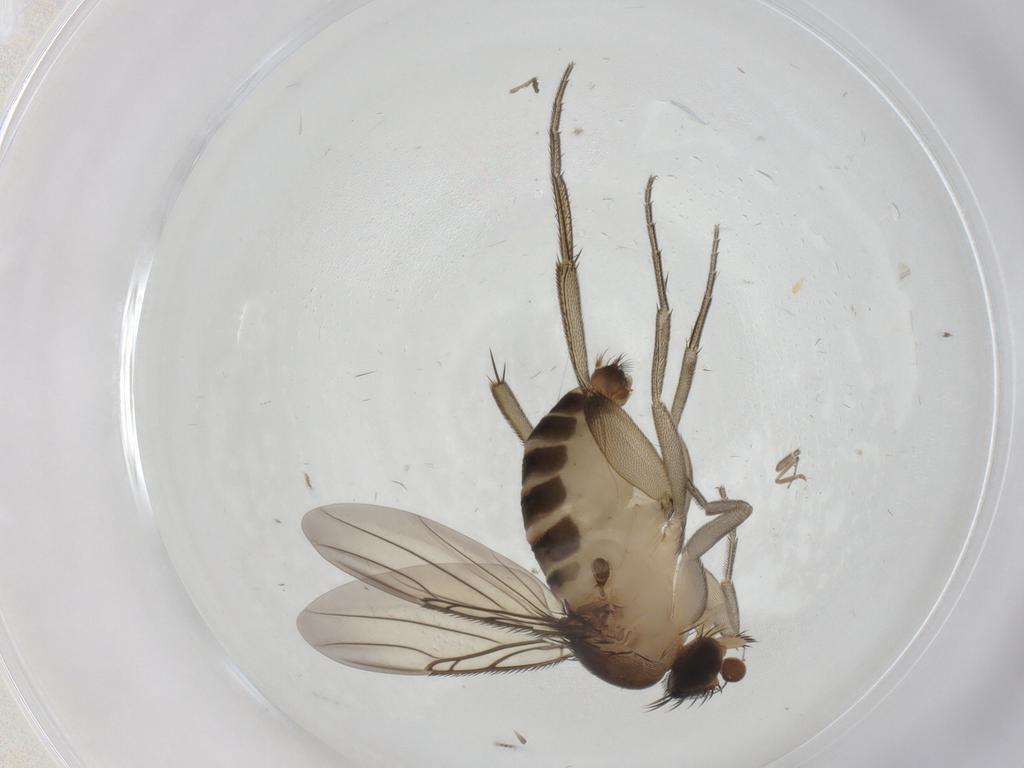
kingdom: Animalia
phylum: Arthropoda
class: Insecta
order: Diptera
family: Phoridae
